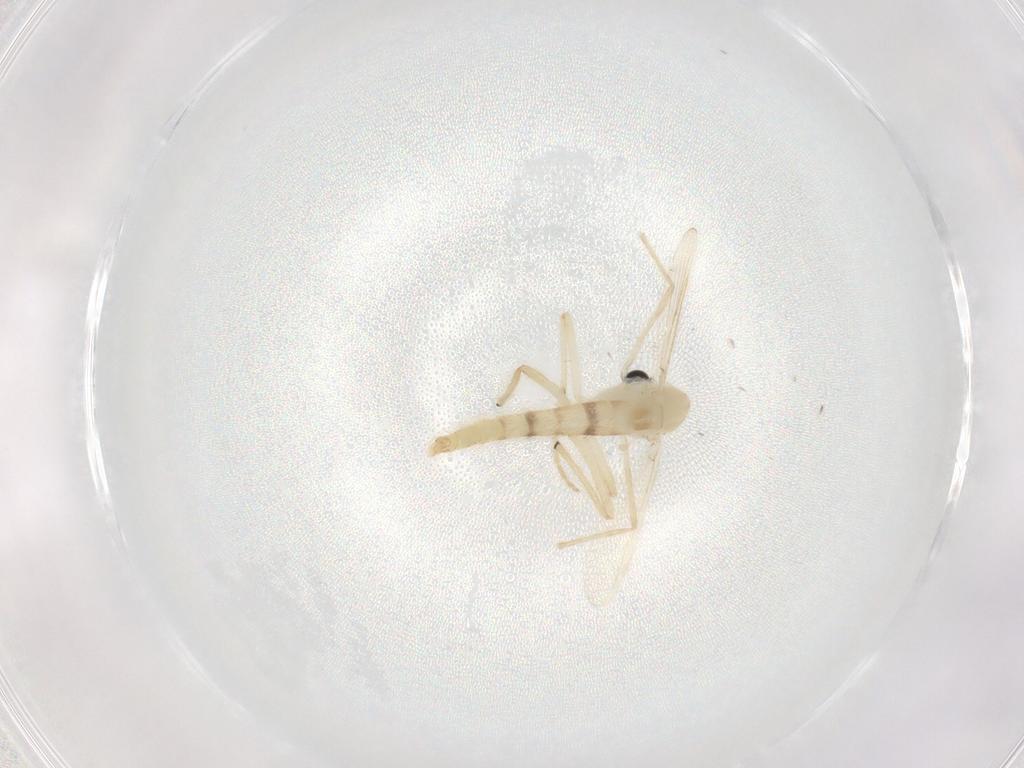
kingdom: Animalia
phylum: Arthropoda
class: Insecta
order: Diptera
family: Chironomidae
